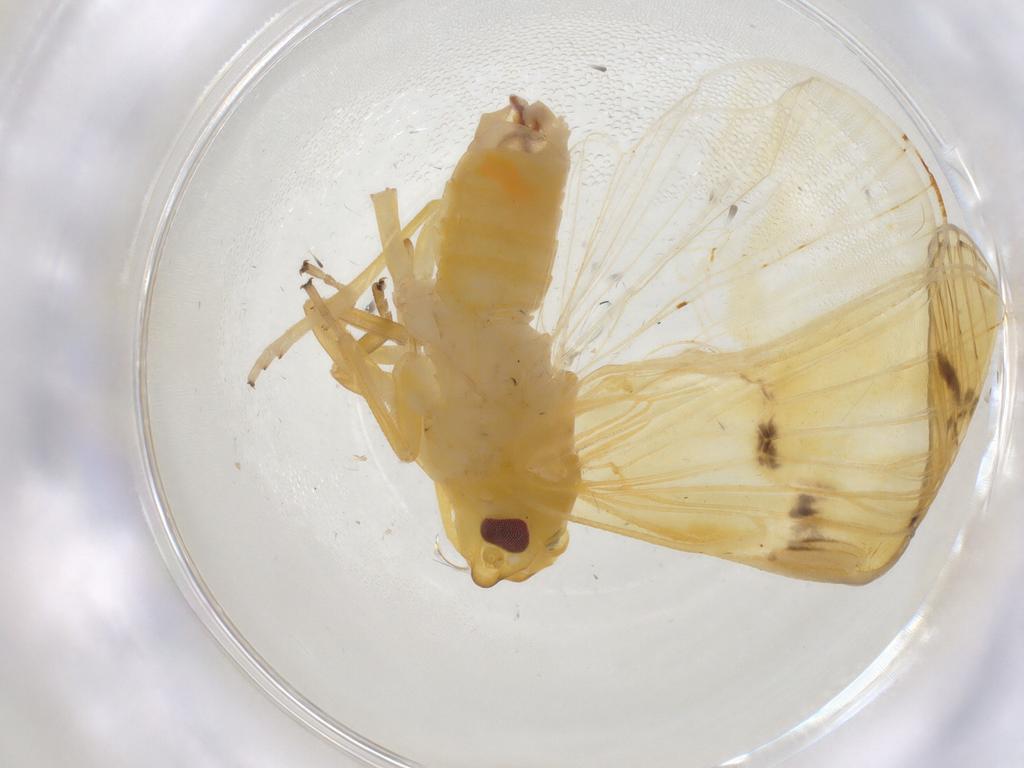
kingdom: Animalia
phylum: Arthropoda
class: Insecta
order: Hemiptera
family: Cixiidae
